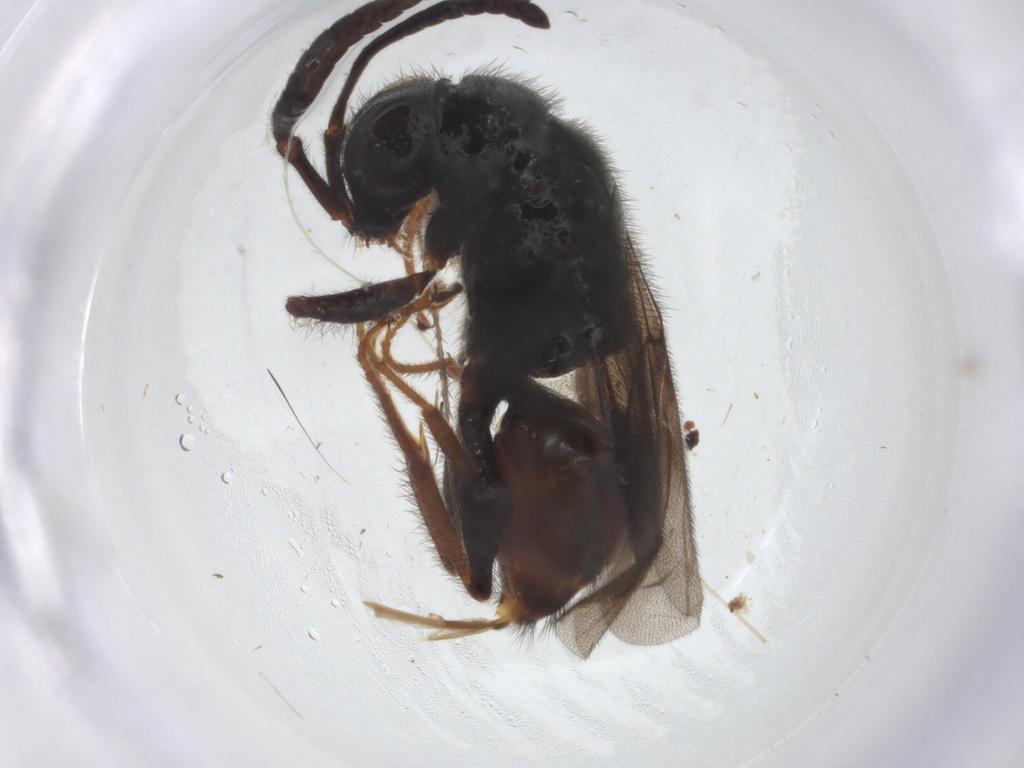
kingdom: Animalia
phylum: Arthropoda
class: Insecta
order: Hymenoptera
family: Chrysididae
